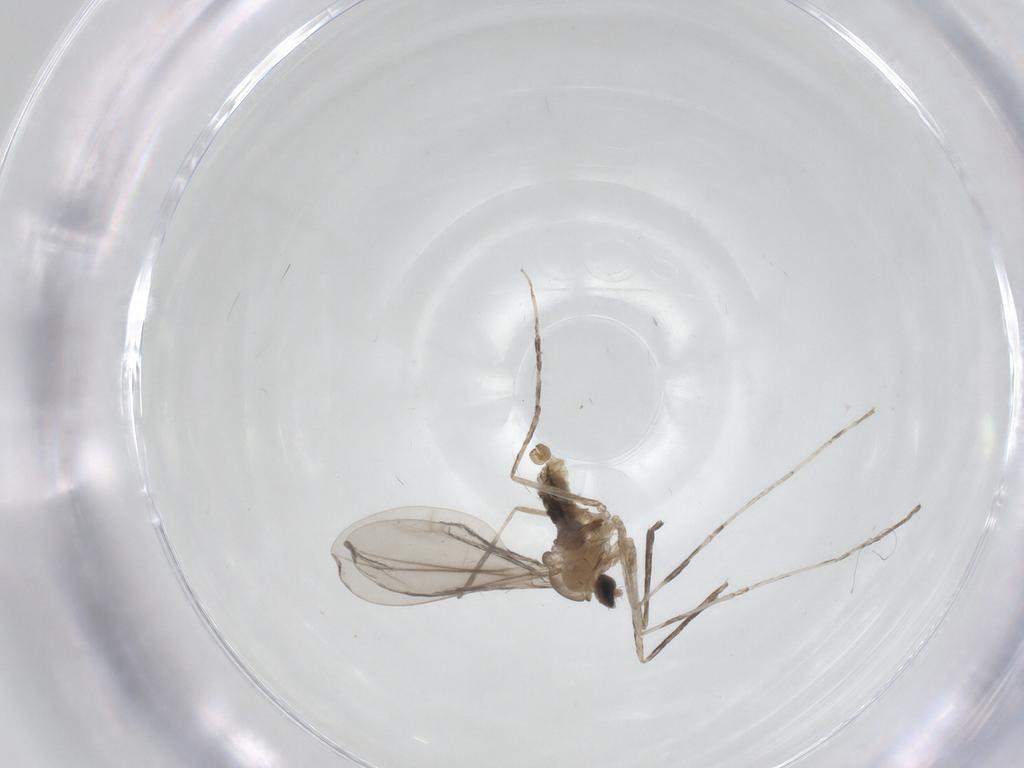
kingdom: Animalia
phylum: Arthropoda
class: Insecta
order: Diptera
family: Cecidomyiidae
